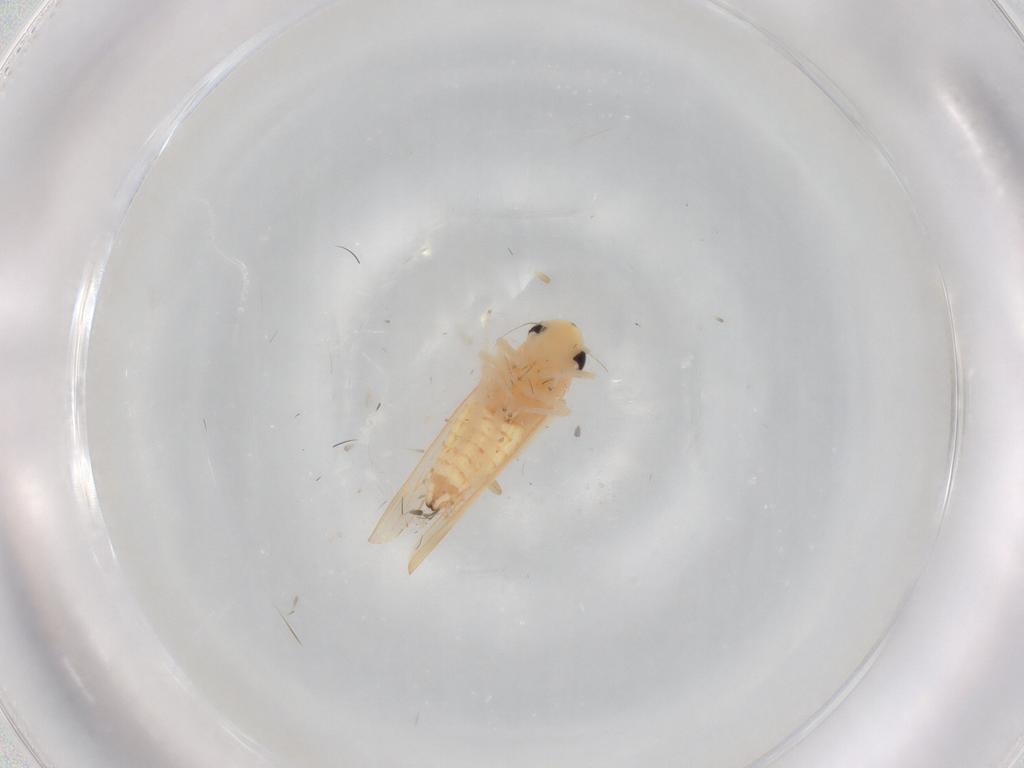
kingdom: Animalia
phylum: Arthropoda
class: Insecta
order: Hemiptera
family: Cicadellidae
